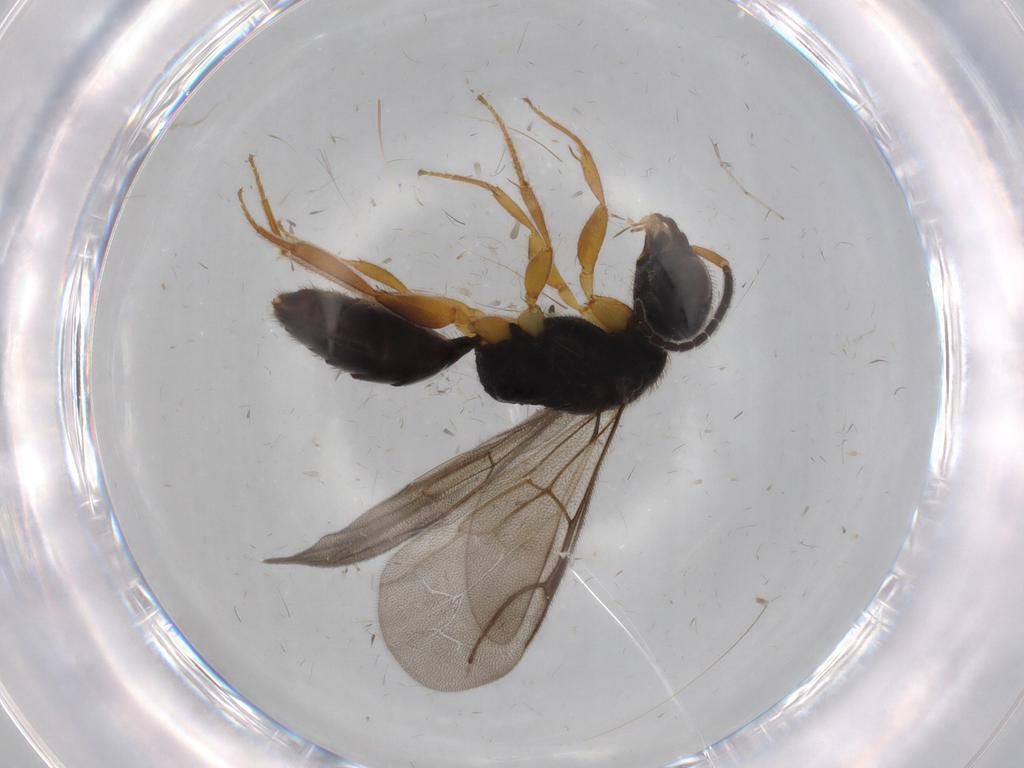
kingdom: Animalia
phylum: Arthropoda
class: Insecta
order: Hymenoptera
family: Bethylidae
